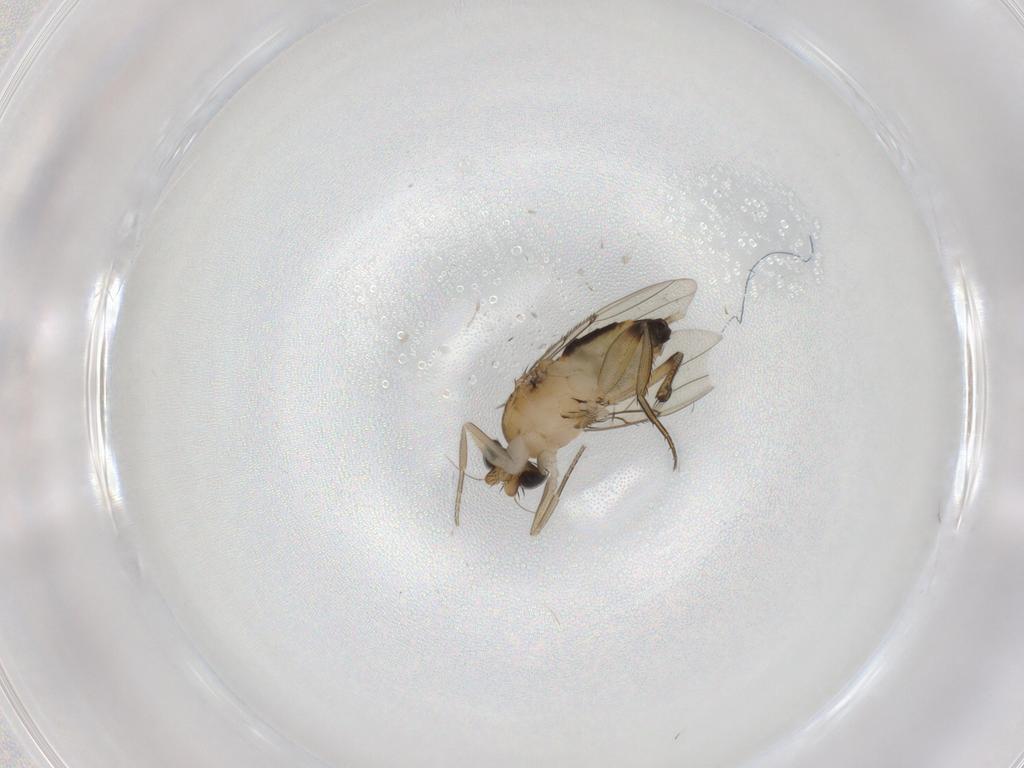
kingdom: Animalia
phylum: Arthropoda
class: Insecta
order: Diptera
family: Phoridae
